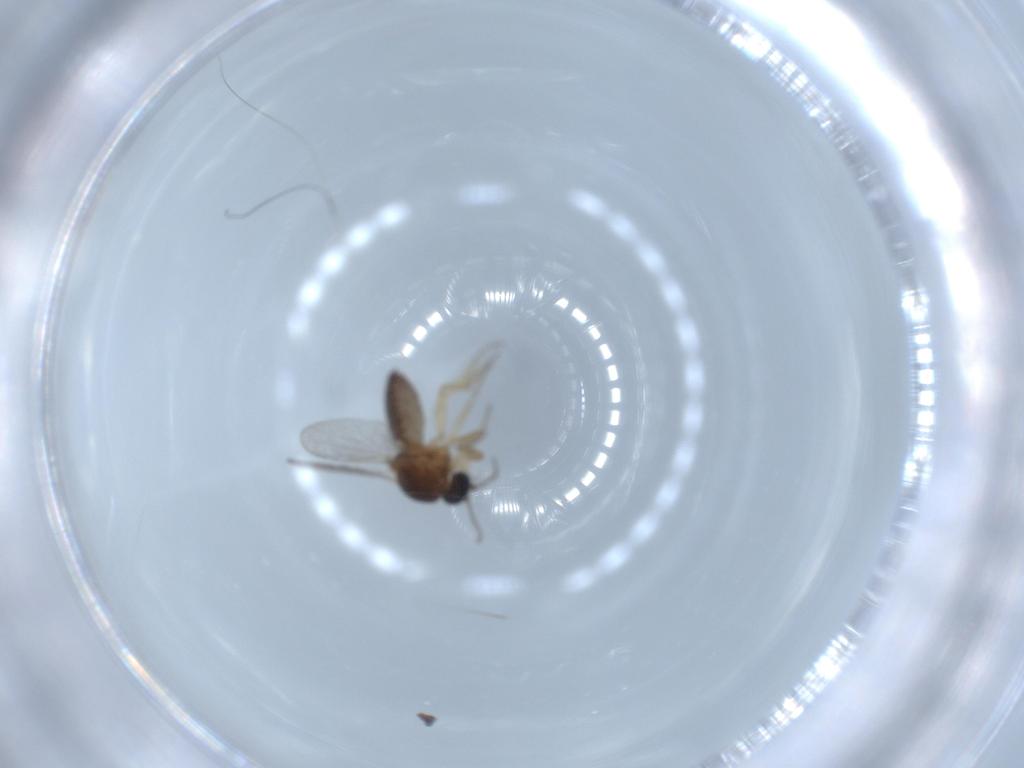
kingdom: Animalia
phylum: Arthropoda
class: Insecta
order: Diptera
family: Ceratopogonidae
